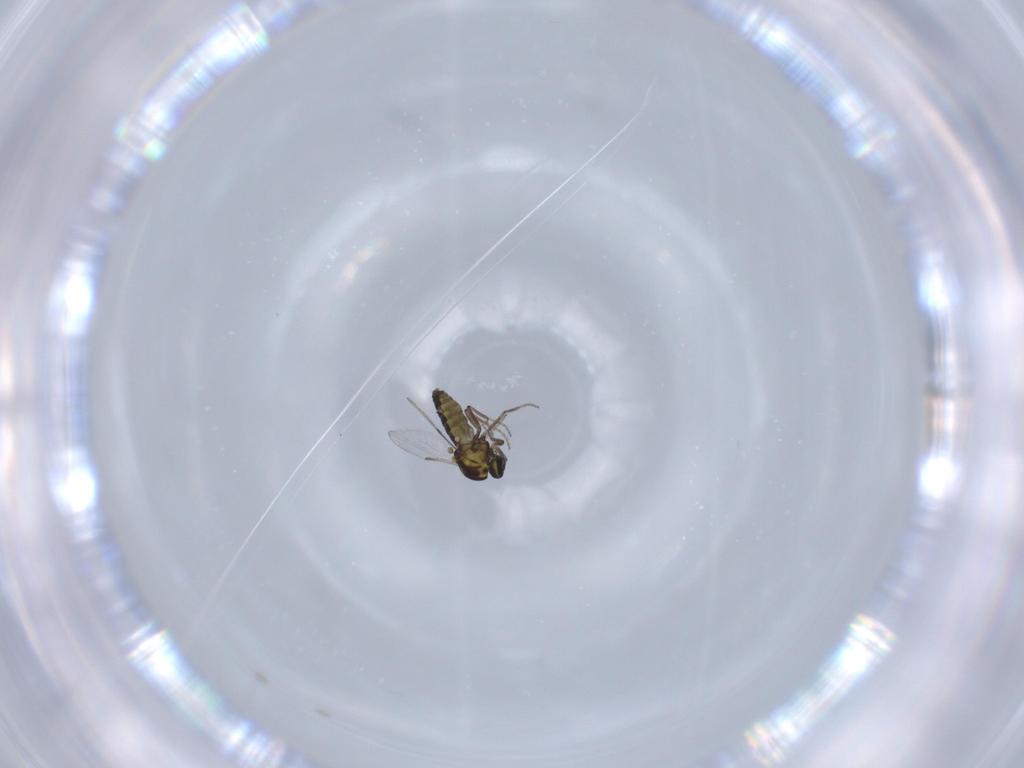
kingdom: Animalia
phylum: Arthropoda
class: Insecta
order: Diptera
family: Ceratopogonidae
